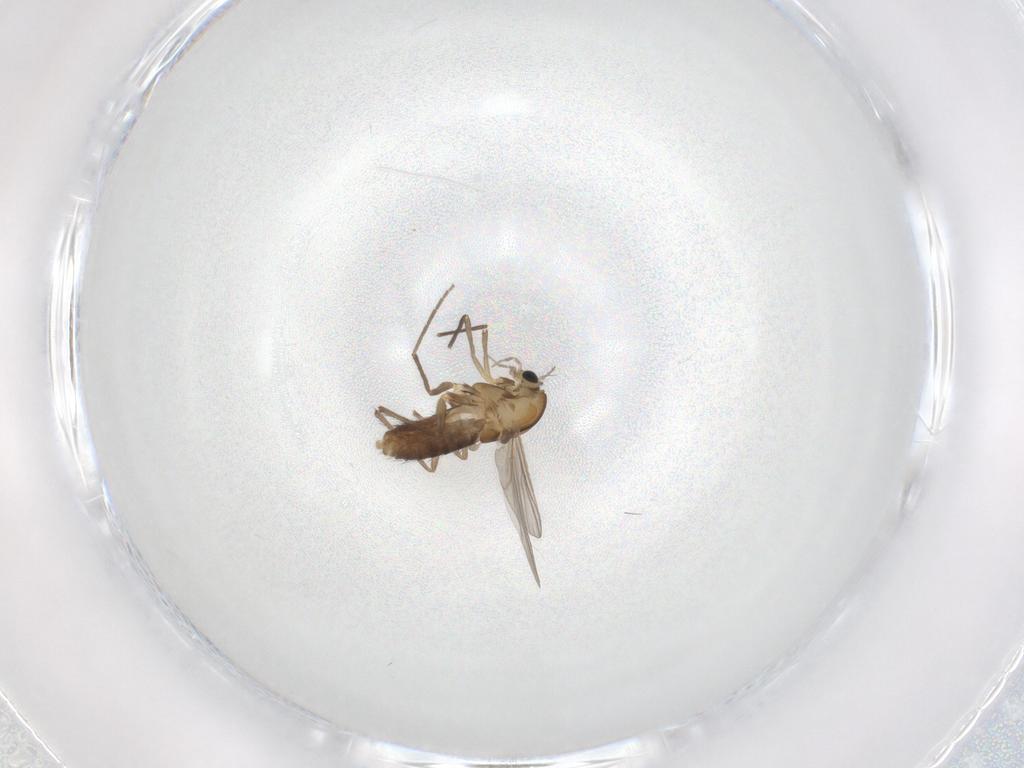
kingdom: Animalia
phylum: Arthropoda
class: Insecta
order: Diptera
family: Chironomidae
